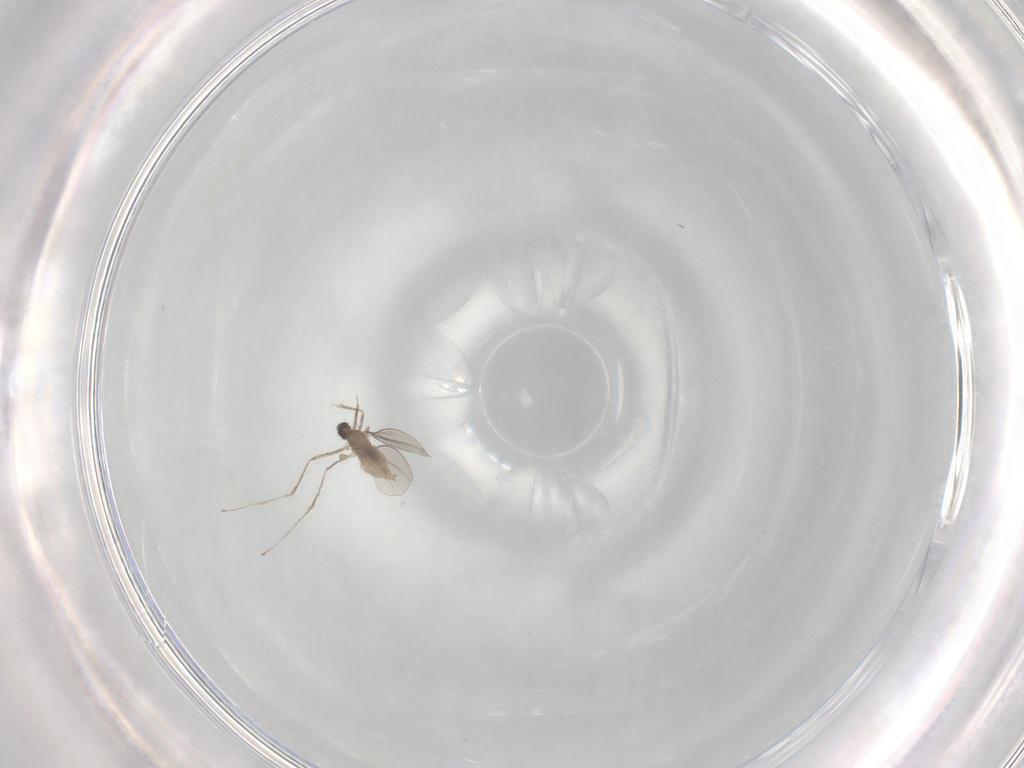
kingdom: Animalia
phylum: Arthropoda
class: Insecta
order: Diptera
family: Cecidomyiidae
